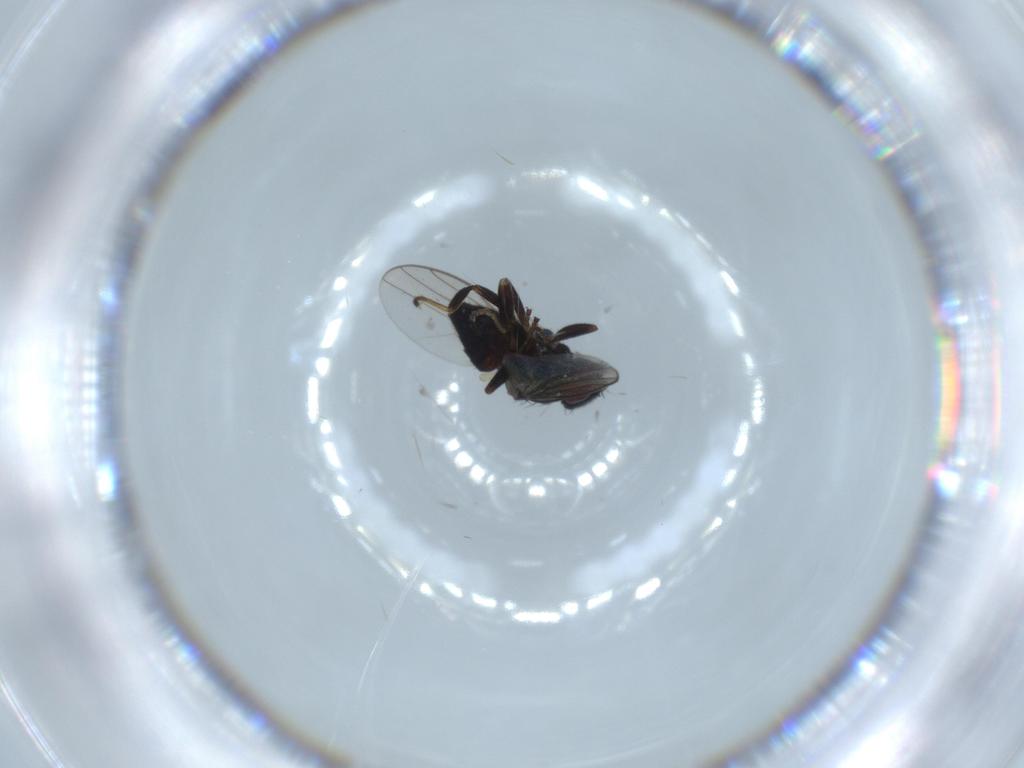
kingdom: Animalia
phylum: Arthropoda
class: Insecta
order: Diptera
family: Chloropidae
